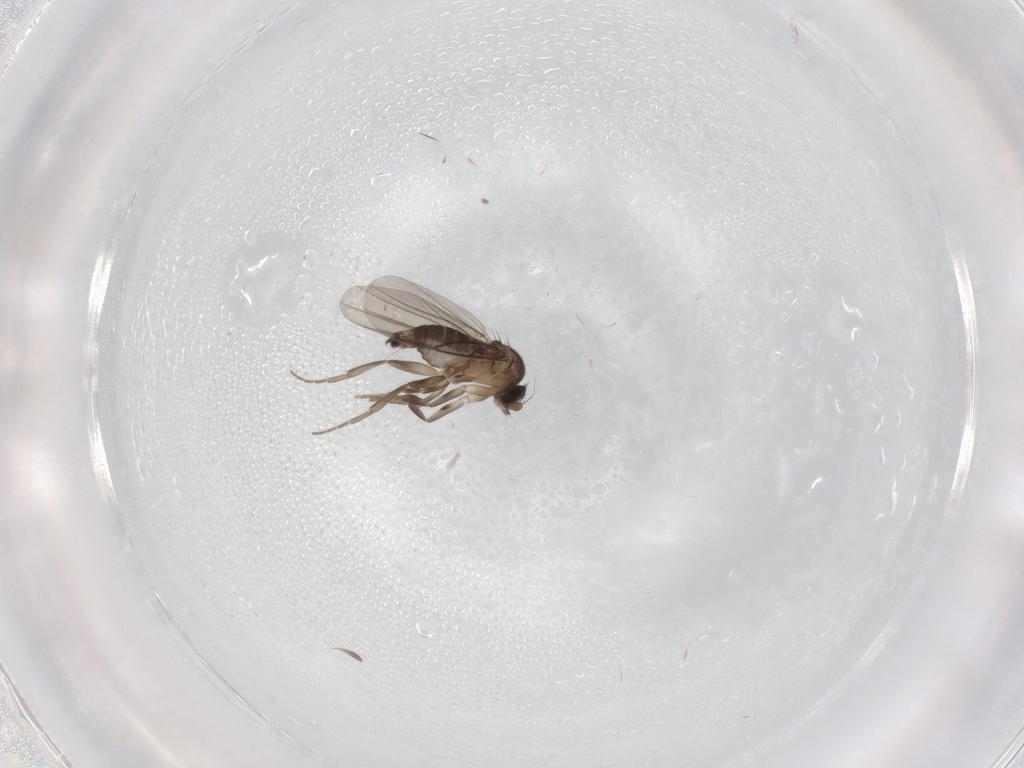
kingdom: Animalia
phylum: Arthropoda
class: Insecta
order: Diptera
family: Phoridae
